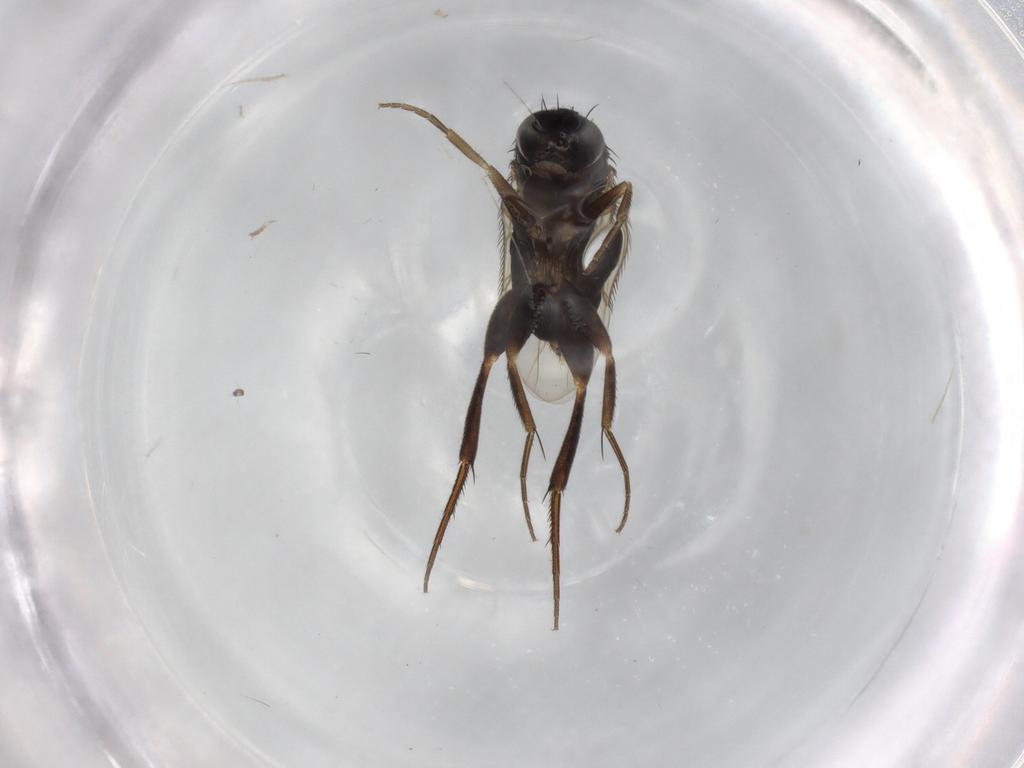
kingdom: Animalia
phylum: Arthropoda
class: Insecta
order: Diptera
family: Phoridae
